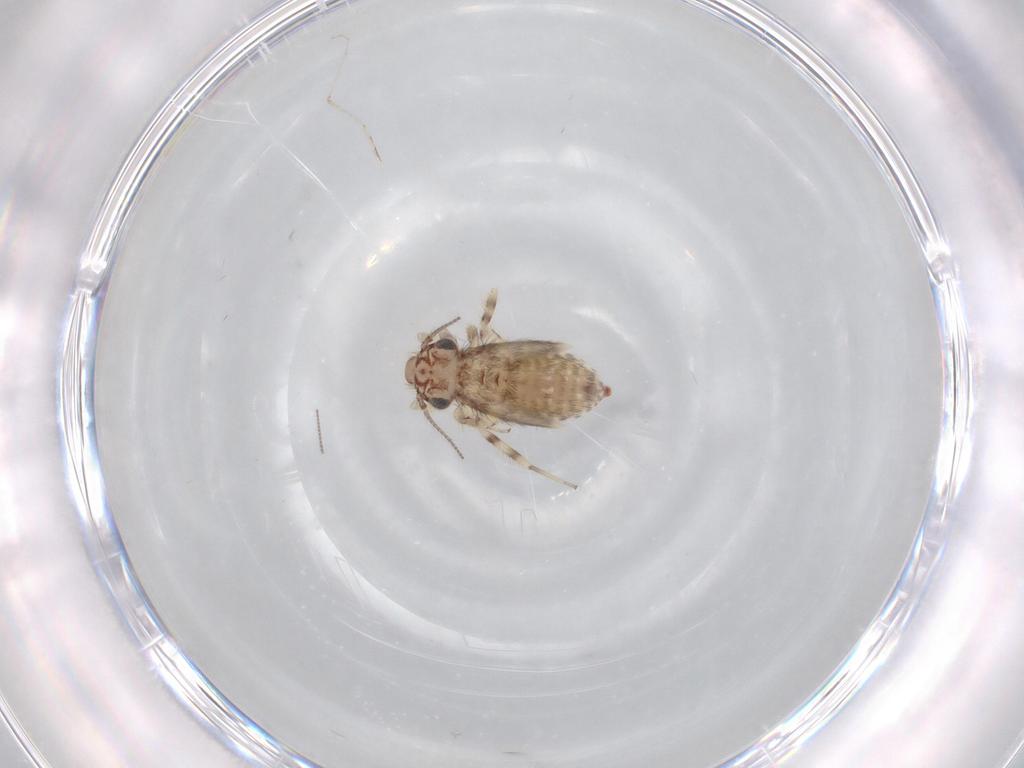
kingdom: Animalia
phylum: Arthropoda
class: Insecta
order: Psocodea
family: Lepidopsocidae
